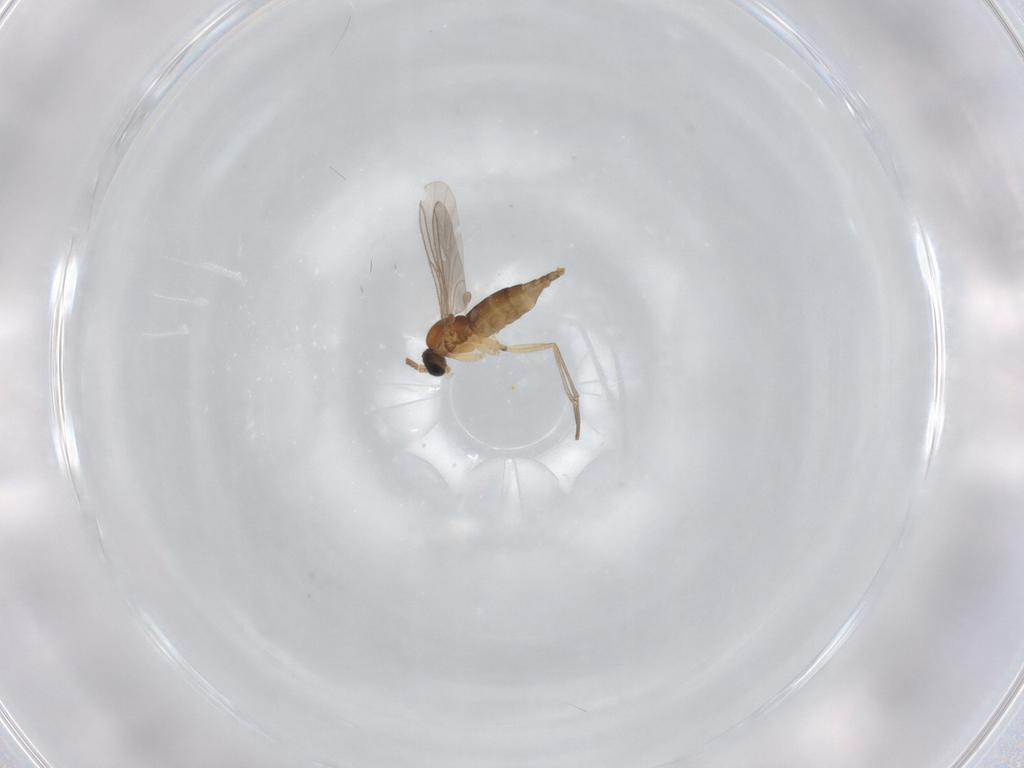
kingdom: Animalia
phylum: Arthropoda
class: Insecta
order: Diptera
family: Sciaridae
